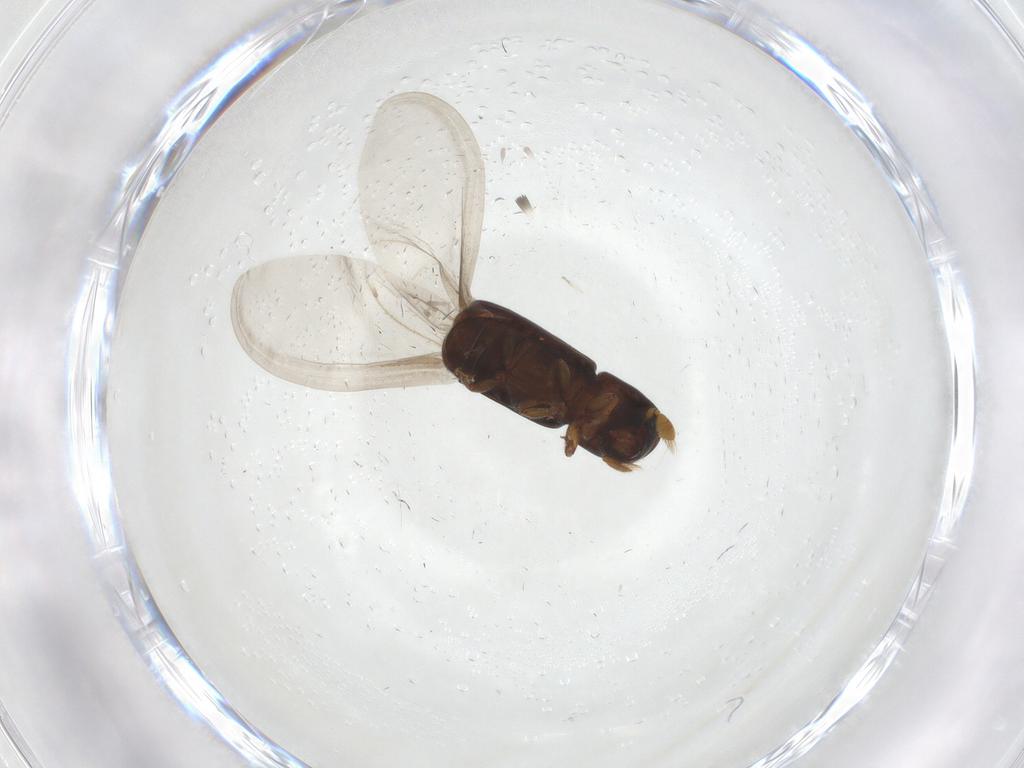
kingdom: Animalia
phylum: Arthropoda
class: Insecta
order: Coleoptera
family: Curculionidae
